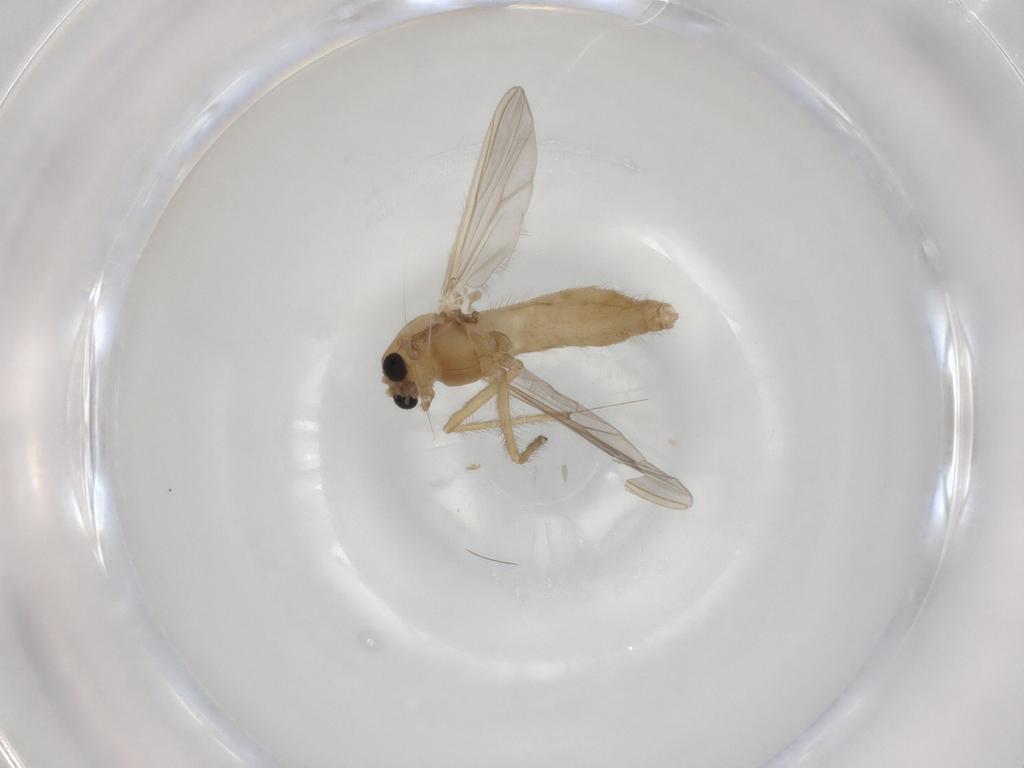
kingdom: Animalia
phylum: Arthropoda
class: Insecta
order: Diptera
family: Chironomidae
